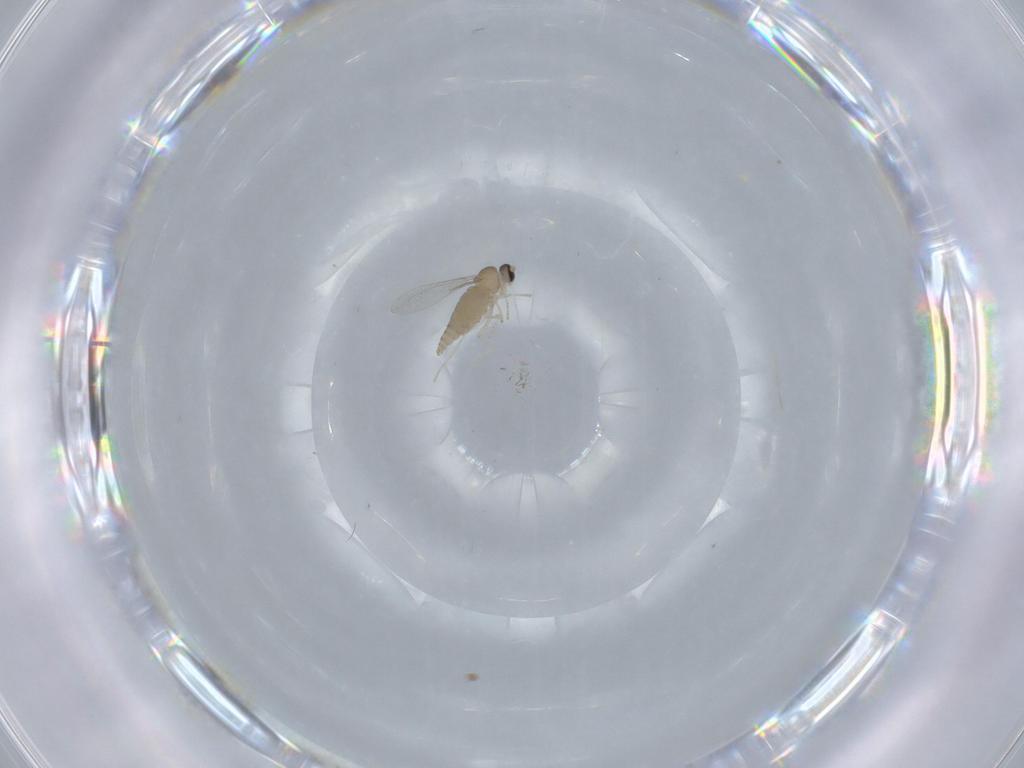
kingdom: Animalia
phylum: Arthropoda
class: Insecta
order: Diptera
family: Cecidomyiidae
